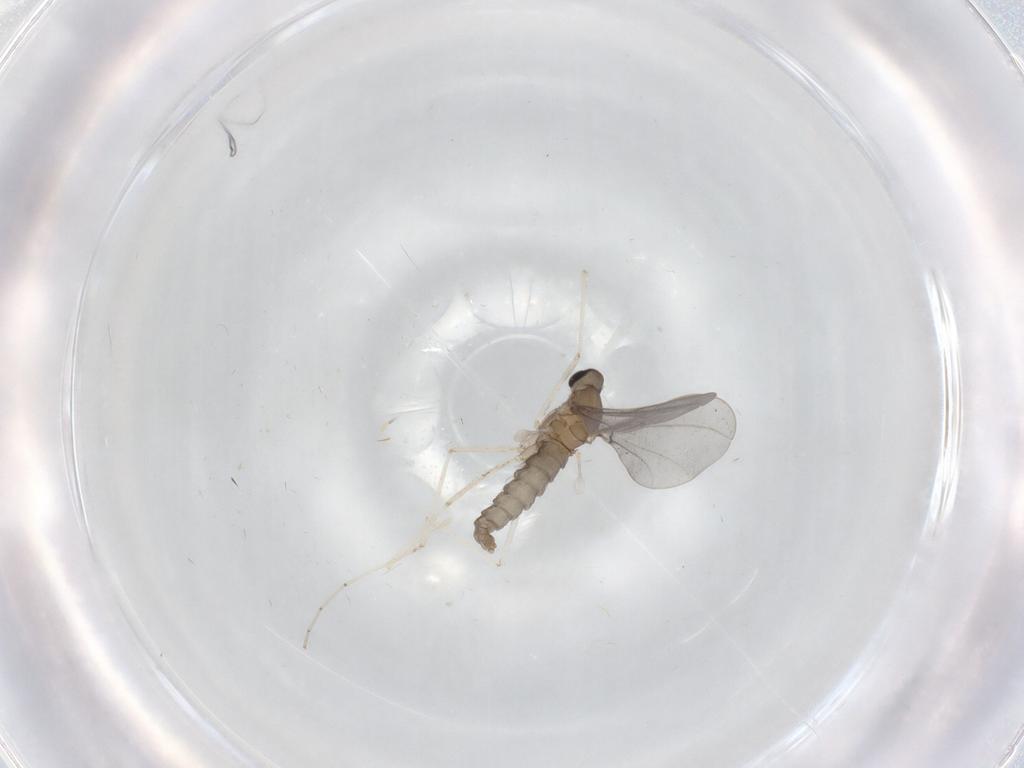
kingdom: Animalia
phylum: Arthropoda
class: Insecta
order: Diptera
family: Cecidomyiidae
